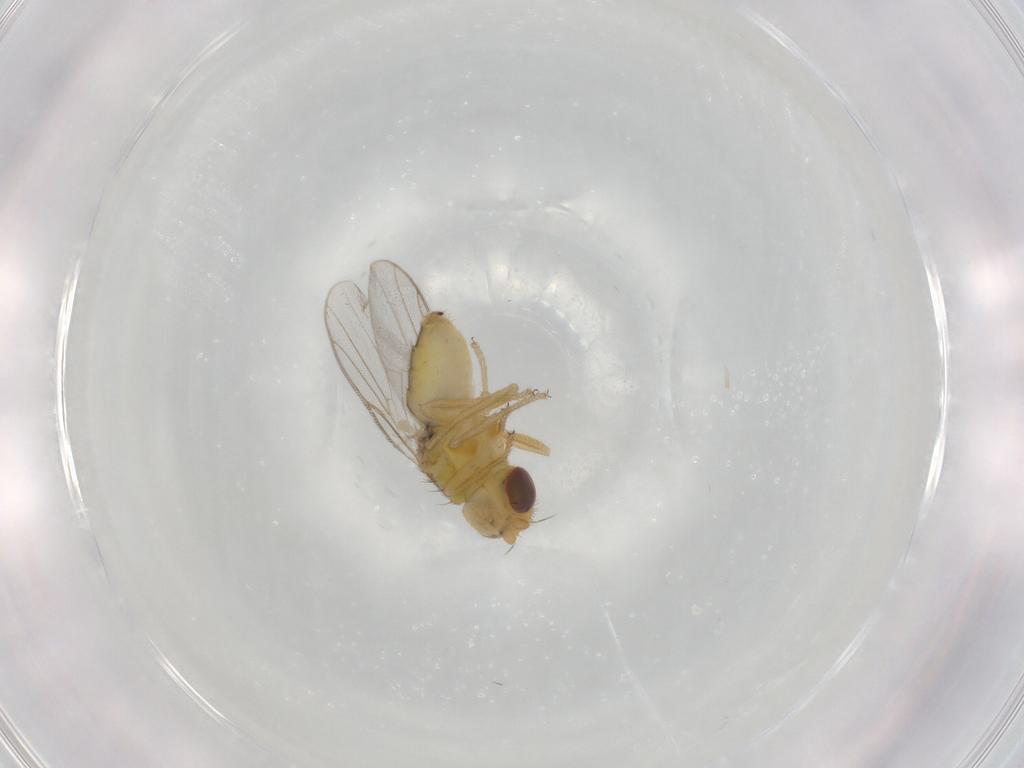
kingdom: Animalia
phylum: Arthropoda
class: Insecta
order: Diptera
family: Chloropidae
